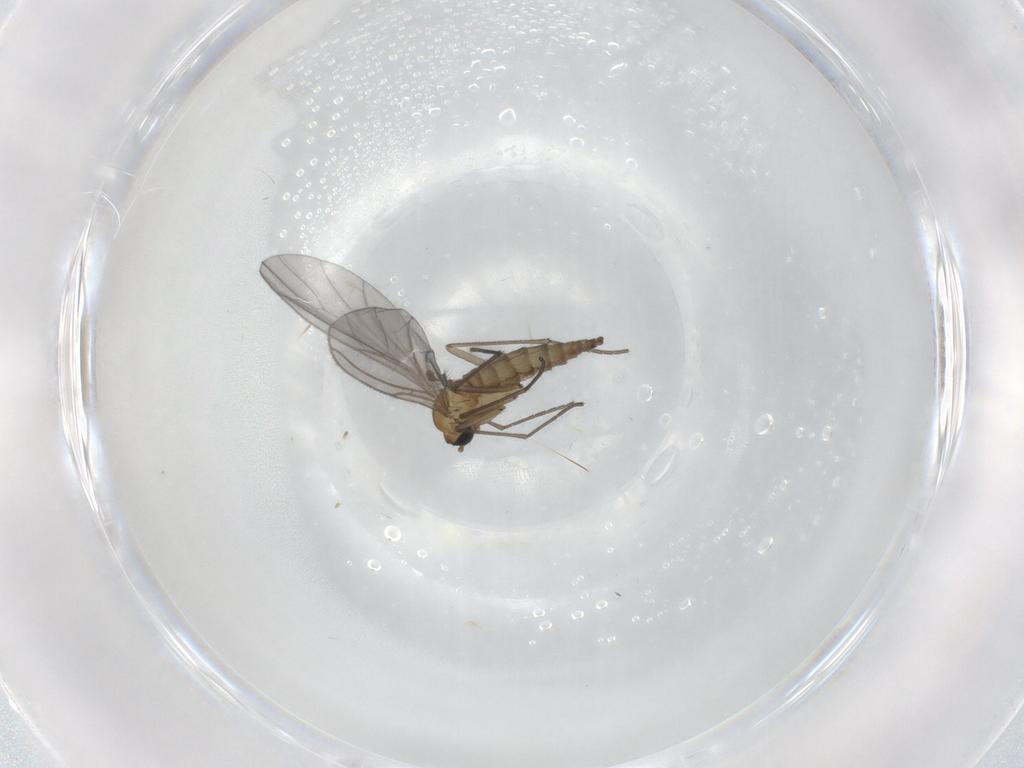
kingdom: Animalia
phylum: Arthropoda
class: Insecta
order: Diptera
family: Sciaridae
